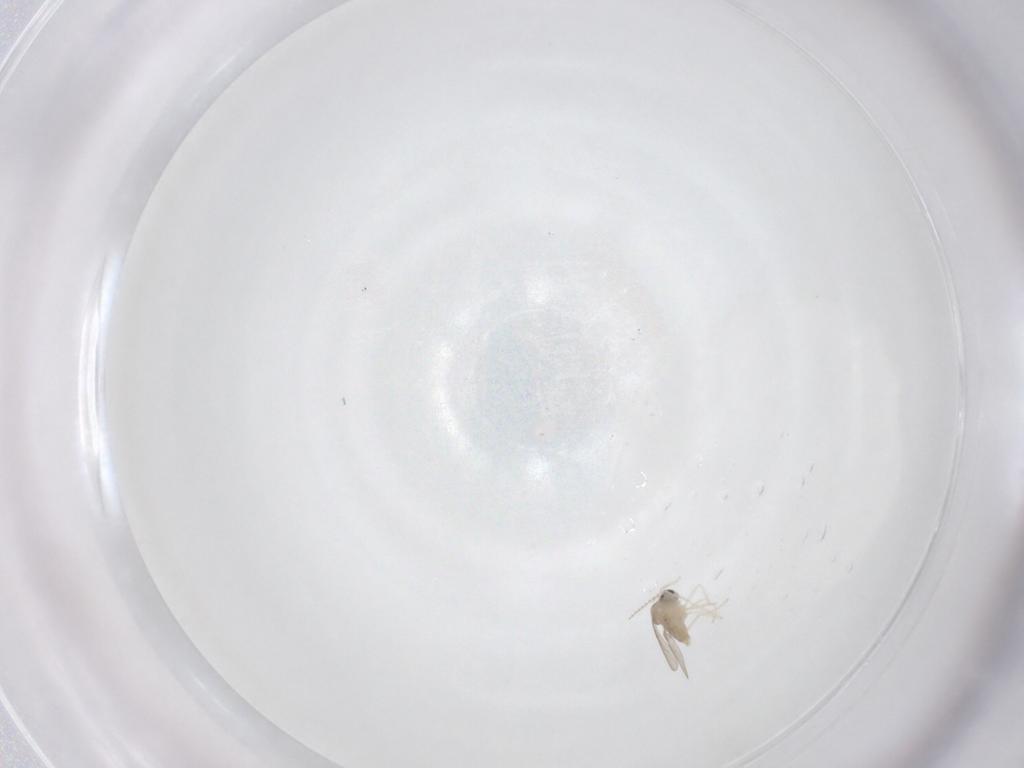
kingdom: Animalia
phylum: Arthropoda
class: Insecta
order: Diptera
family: Cecidomyiidae
